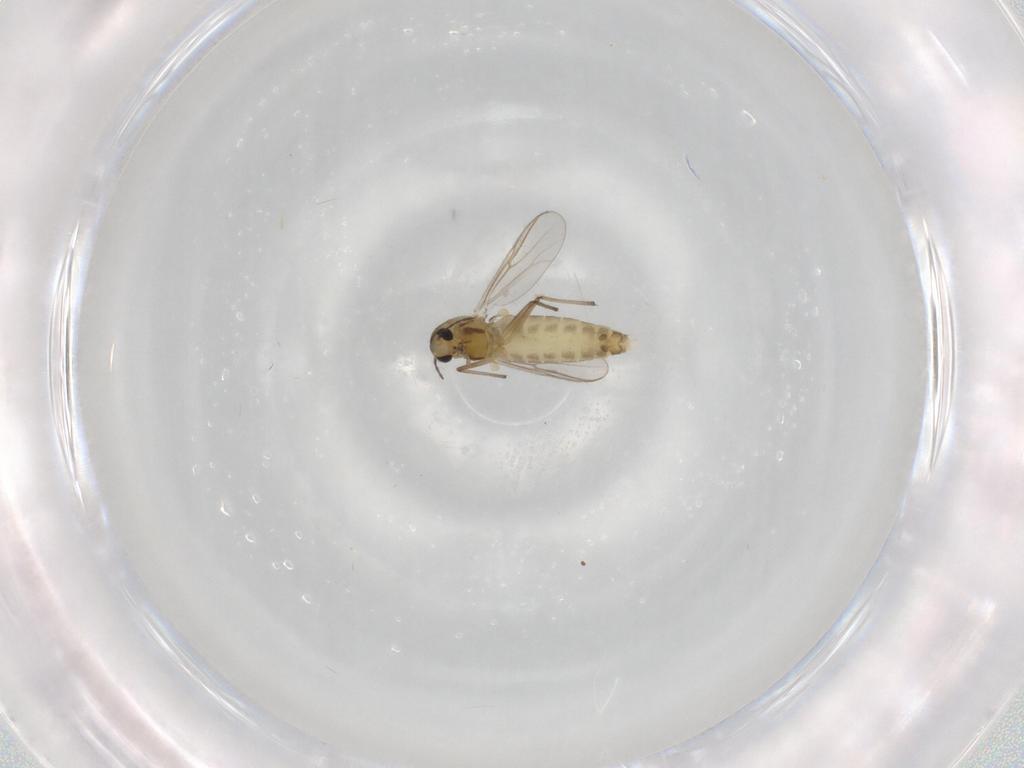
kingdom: Animalia
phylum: Arthropoda
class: Insecta
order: Diptera
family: Chironomidae
